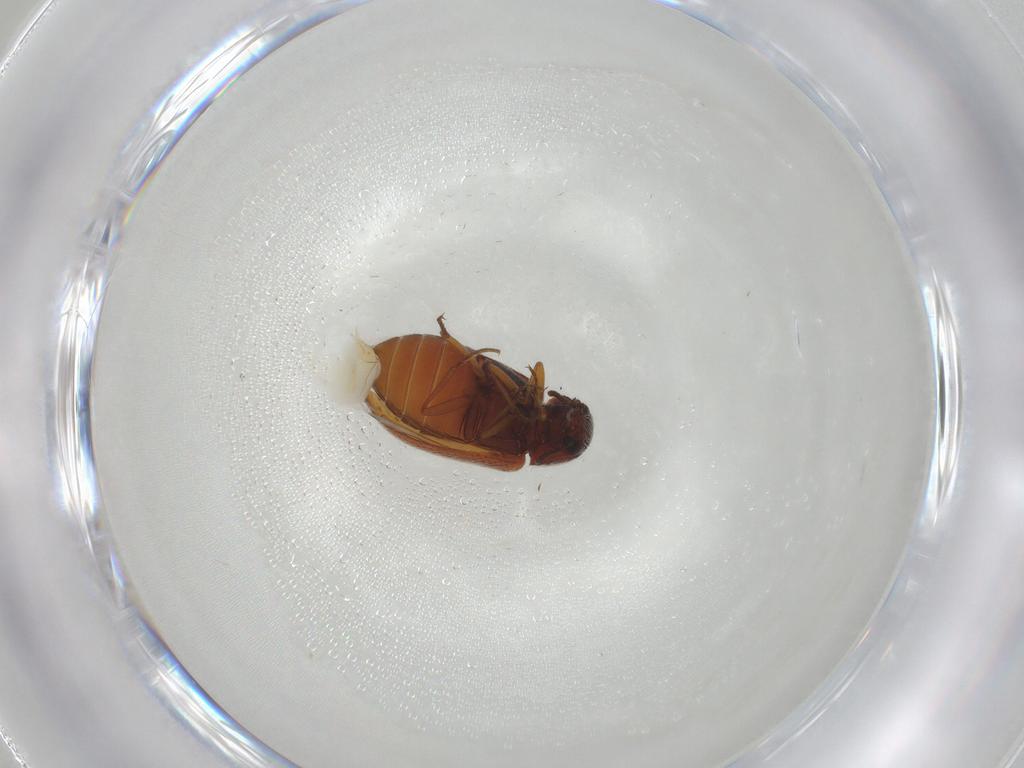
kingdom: Animalia
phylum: Arthropoda
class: Insecta
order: Coleoptera
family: Rhadalidae
